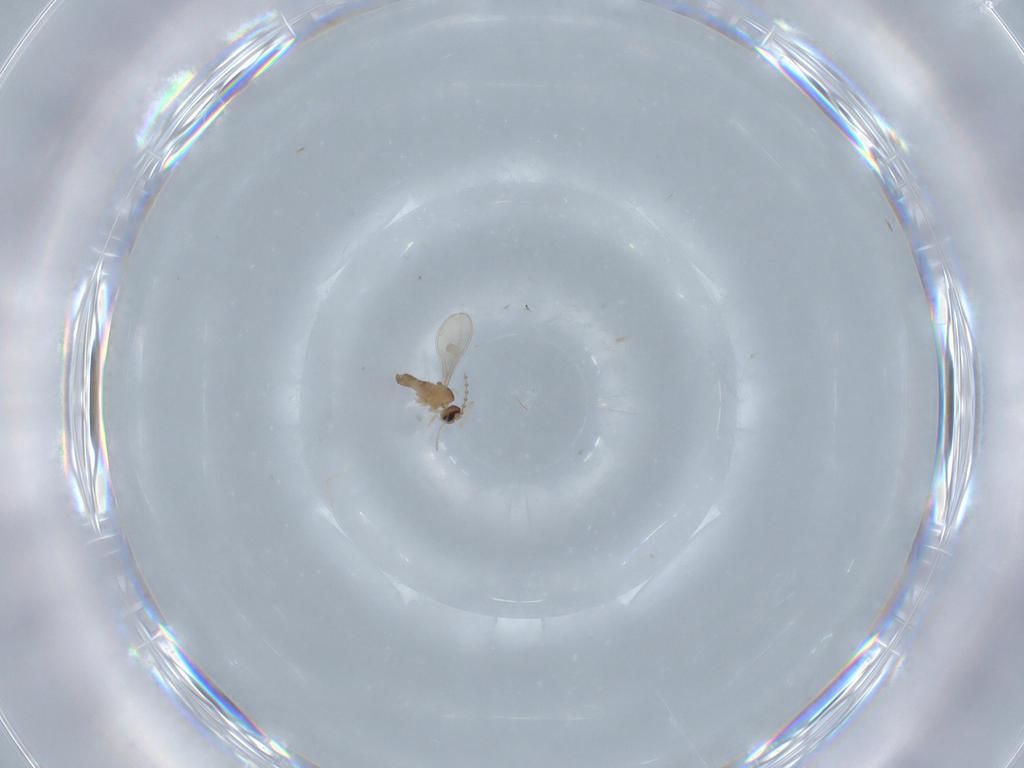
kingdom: Animalia
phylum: Arthropoda
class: Insecta
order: Diptera
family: Cecidomyiidae
